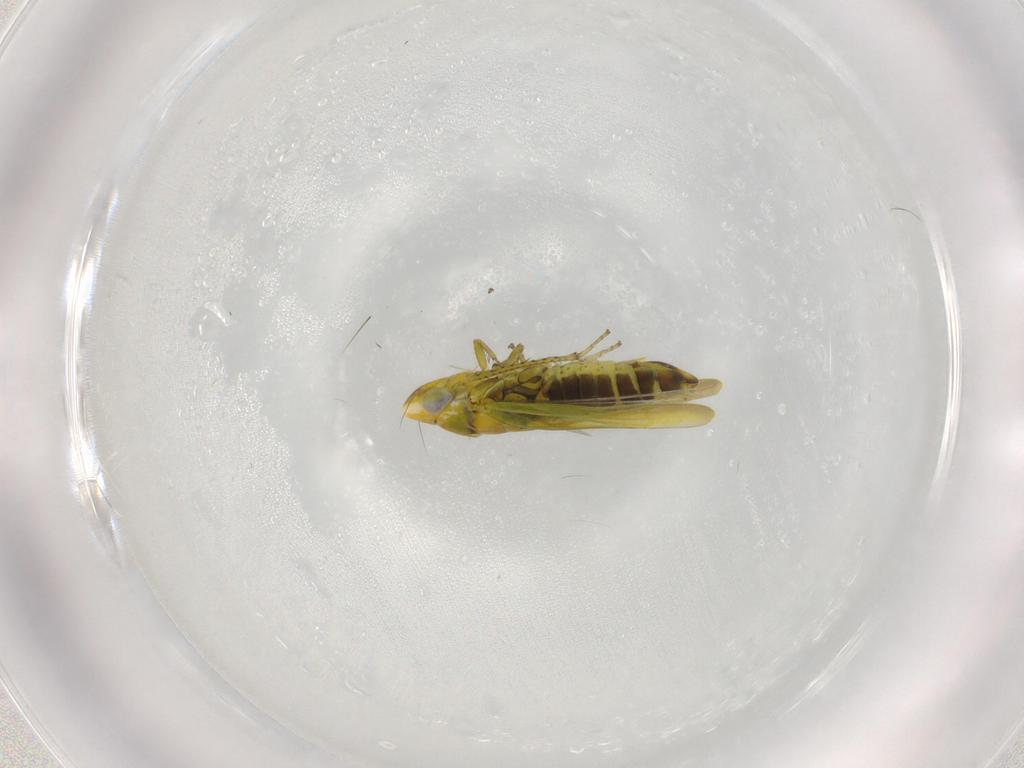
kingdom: Animalia
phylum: Arthropoda
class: Insecta
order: Hemiptera
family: Cicadellidae
